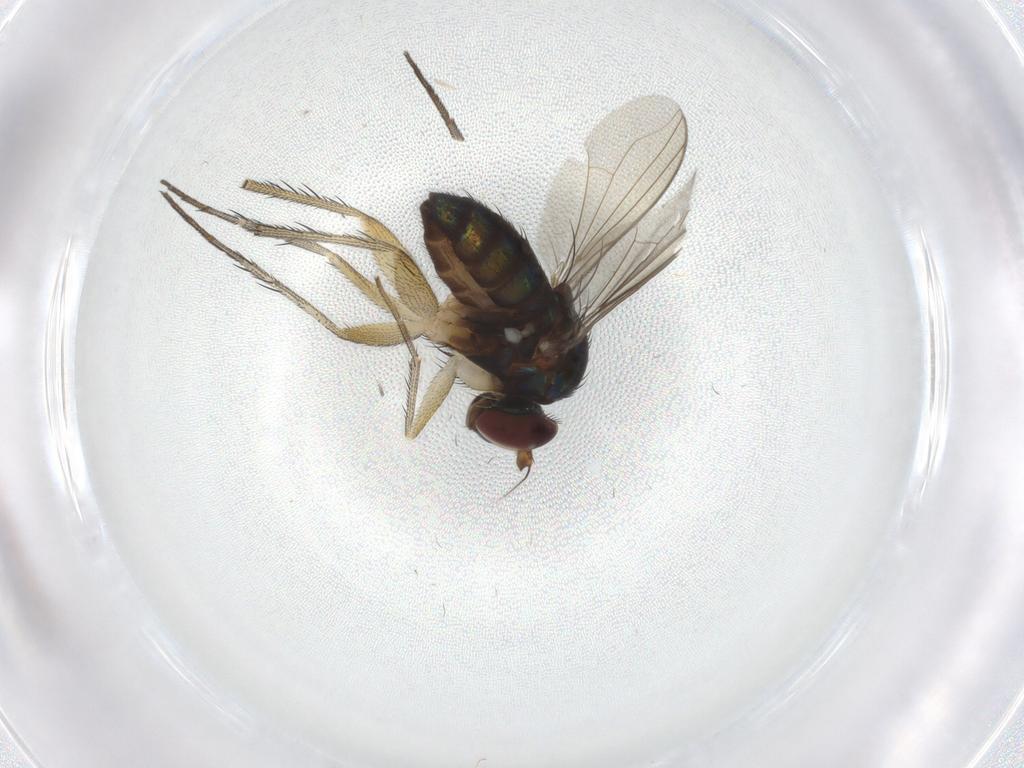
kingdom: Animalia
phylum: Arthropoda
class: Insecta
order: Diptera
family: Dolichopodidae
